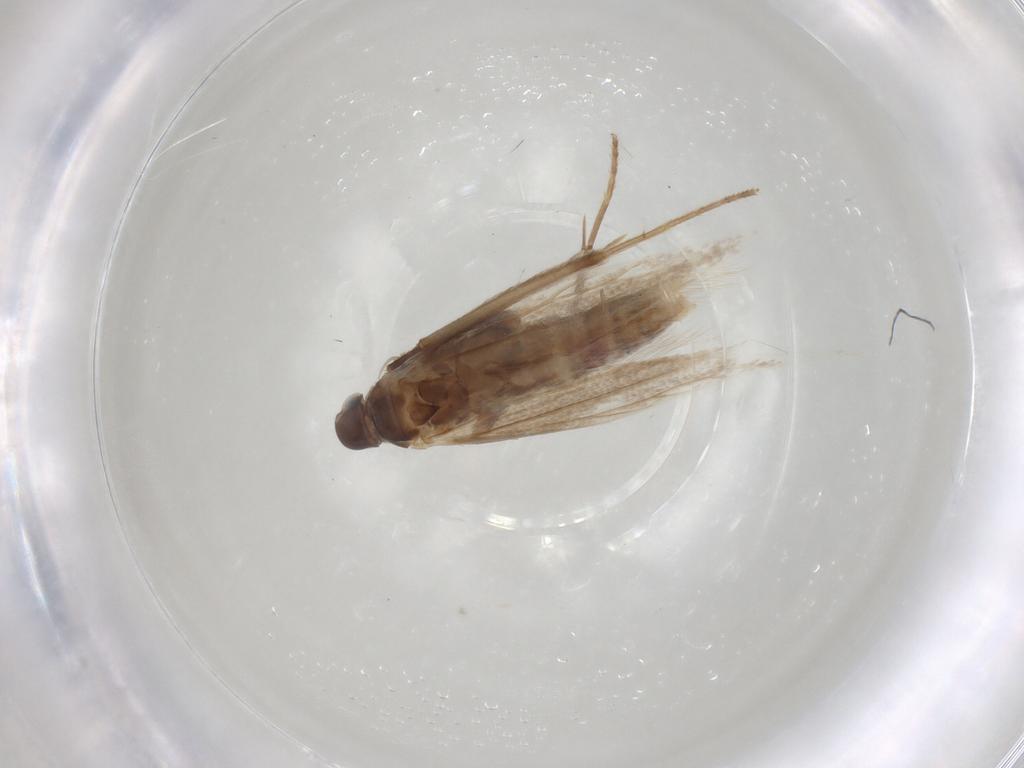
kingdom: Animalia
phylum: Arthropoda
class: Insecta
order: Lepidoptera
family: Coleophoridae
